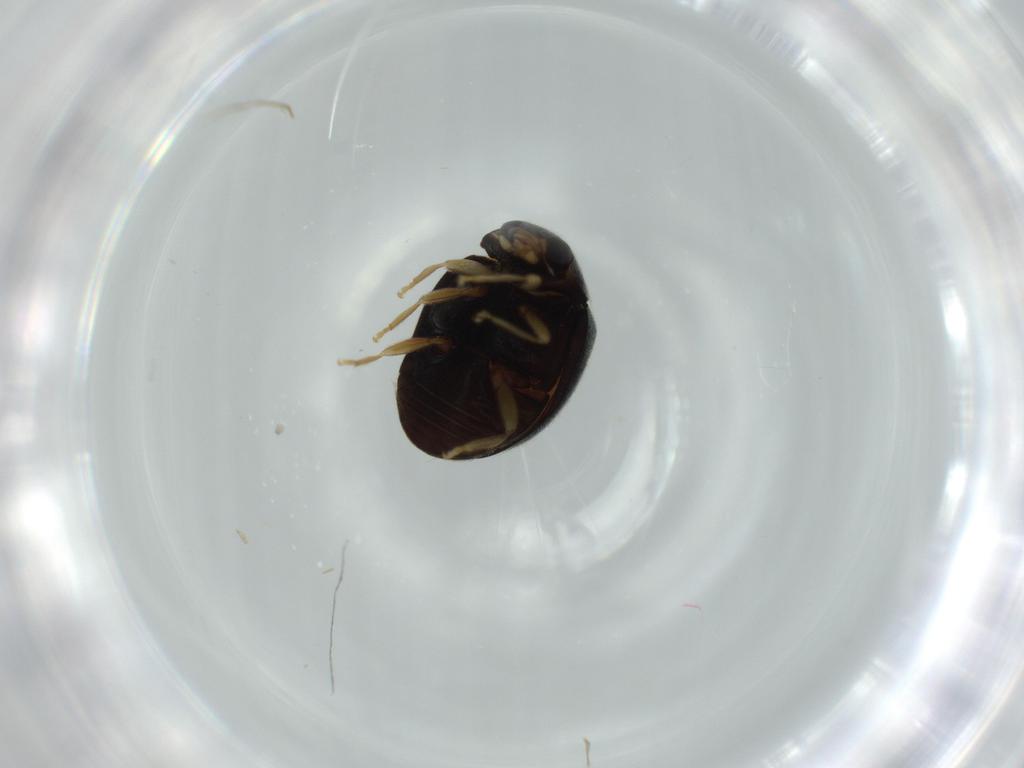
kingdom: Animalia
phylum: Arthropoda
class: Insecta
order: Coleoptera
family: Coccinellidae
